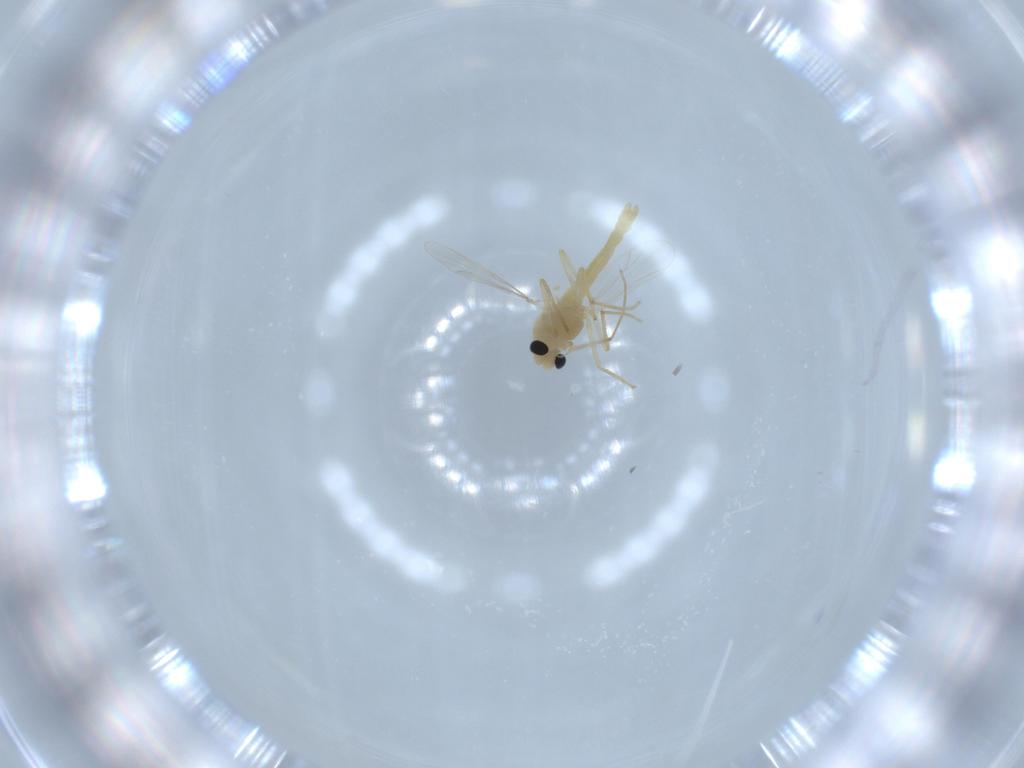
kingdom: Animalia
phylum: Arthropoda
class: Insecta
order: Diptera
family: Chironomidae
